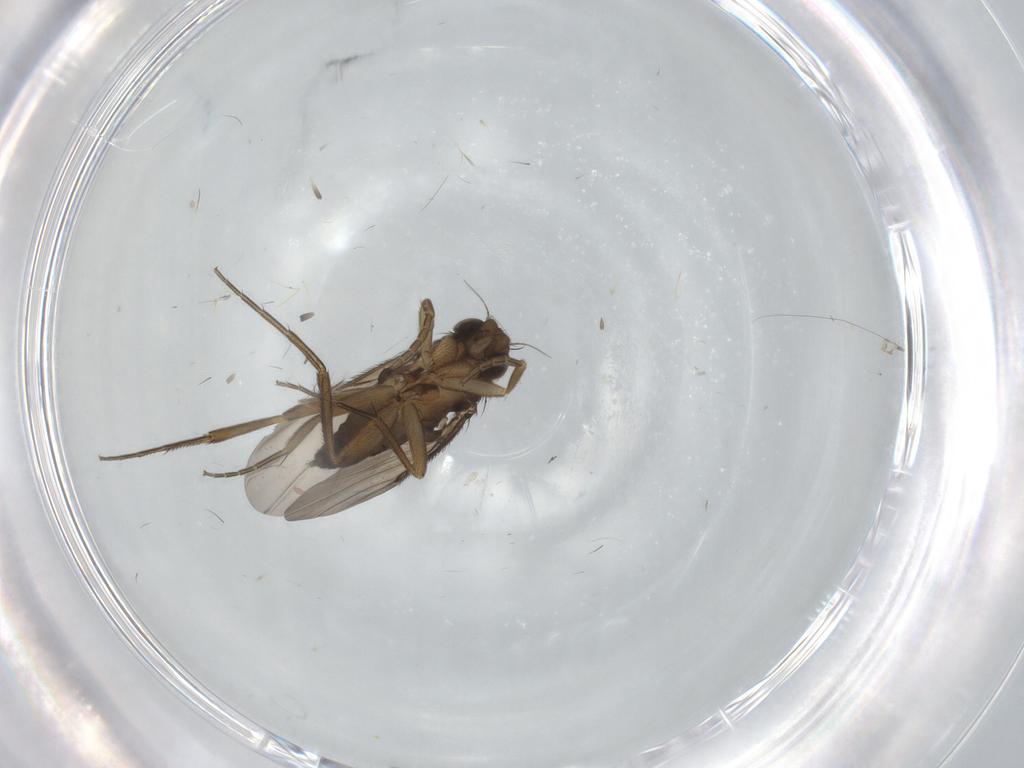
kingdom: Animalia
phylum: Arthropoda
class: Insecta
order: Diptera
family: Phoridae
